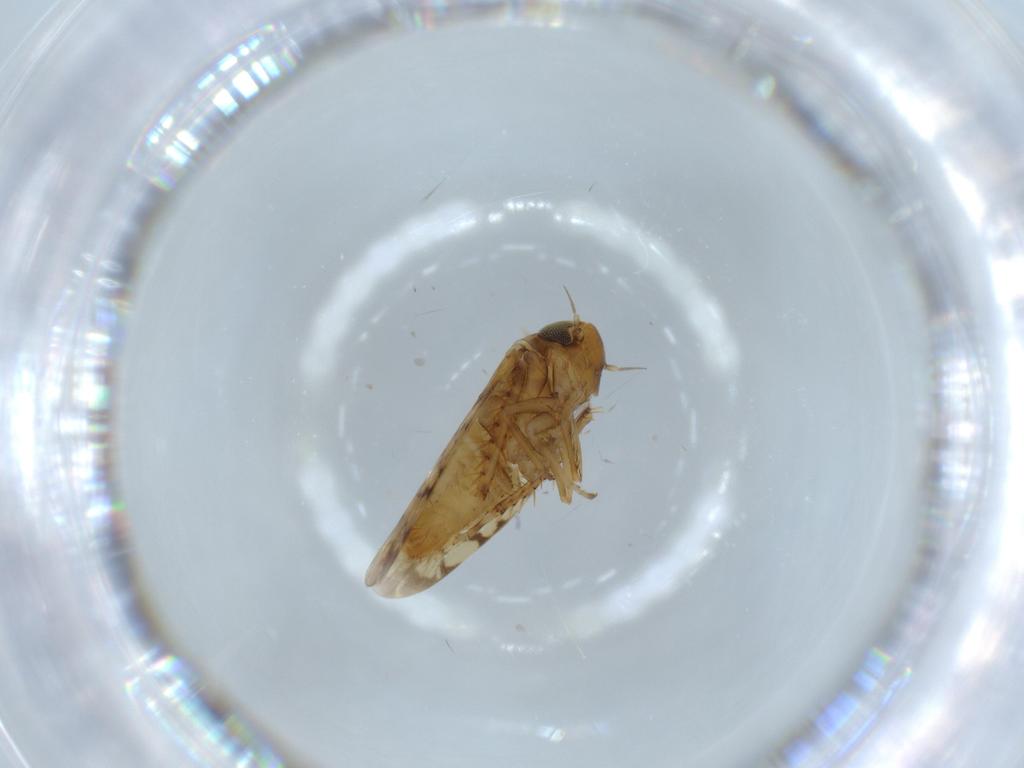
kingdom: Animalia
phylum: Arthropoda
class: Insecta
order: Hemiptera
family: Cicadellidae
